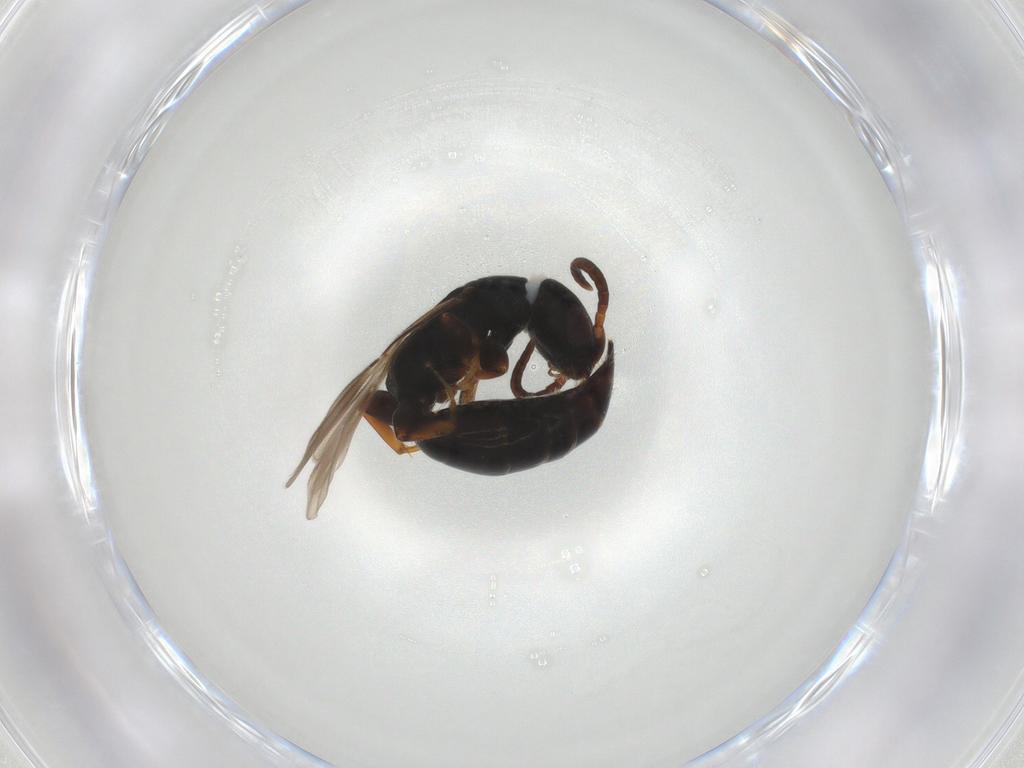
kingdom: Animalia
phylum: Arthropoda
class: Insecta
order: Hymenoptera
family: Bethylidae
